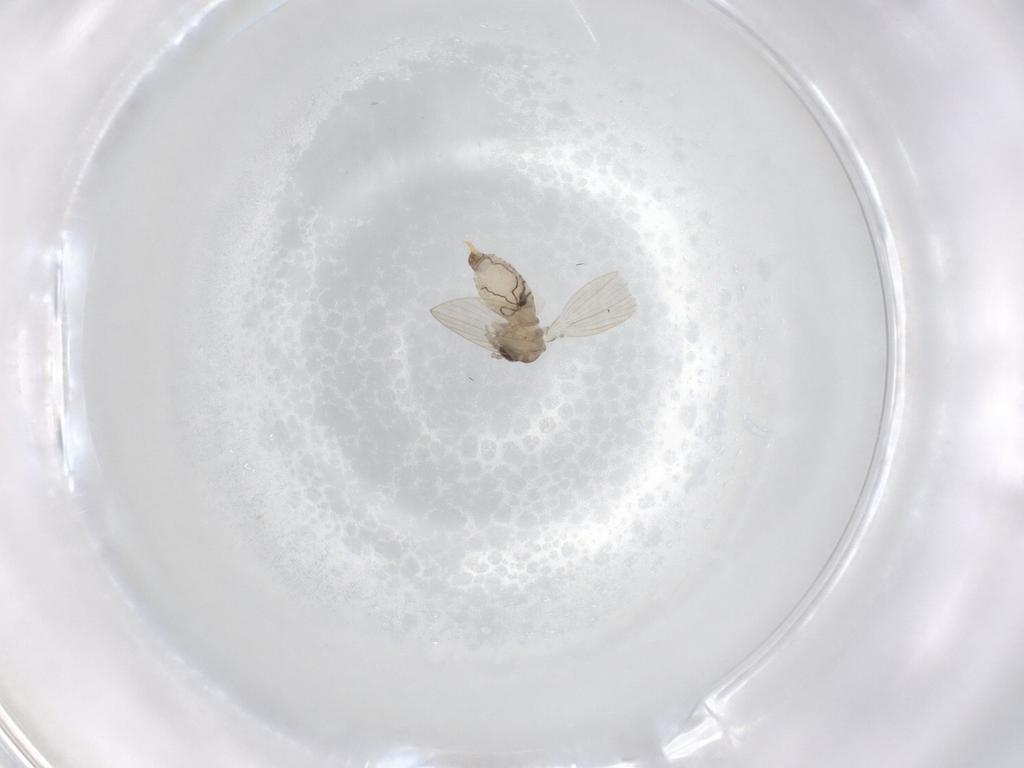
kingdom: Animalia
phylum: Arthropoda
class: Insecta
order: Diptera
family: Psychodidae
